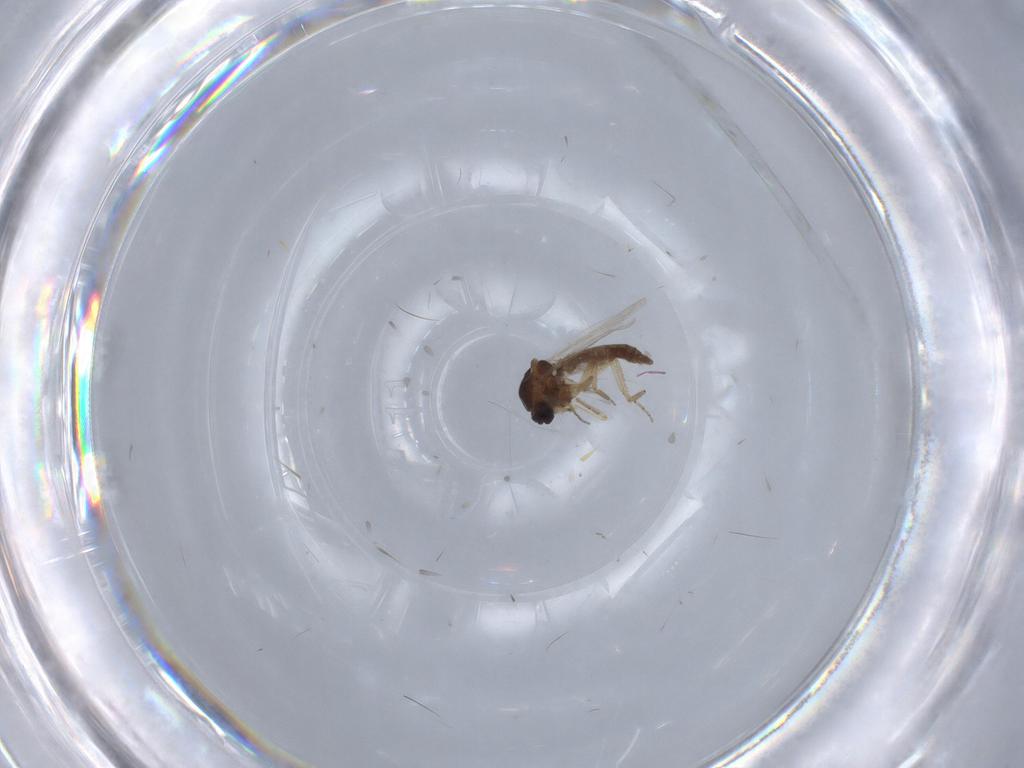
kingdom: Animalia
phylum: Arthropoda
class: Insecta
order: Diptera
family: Ceratopogonidae
